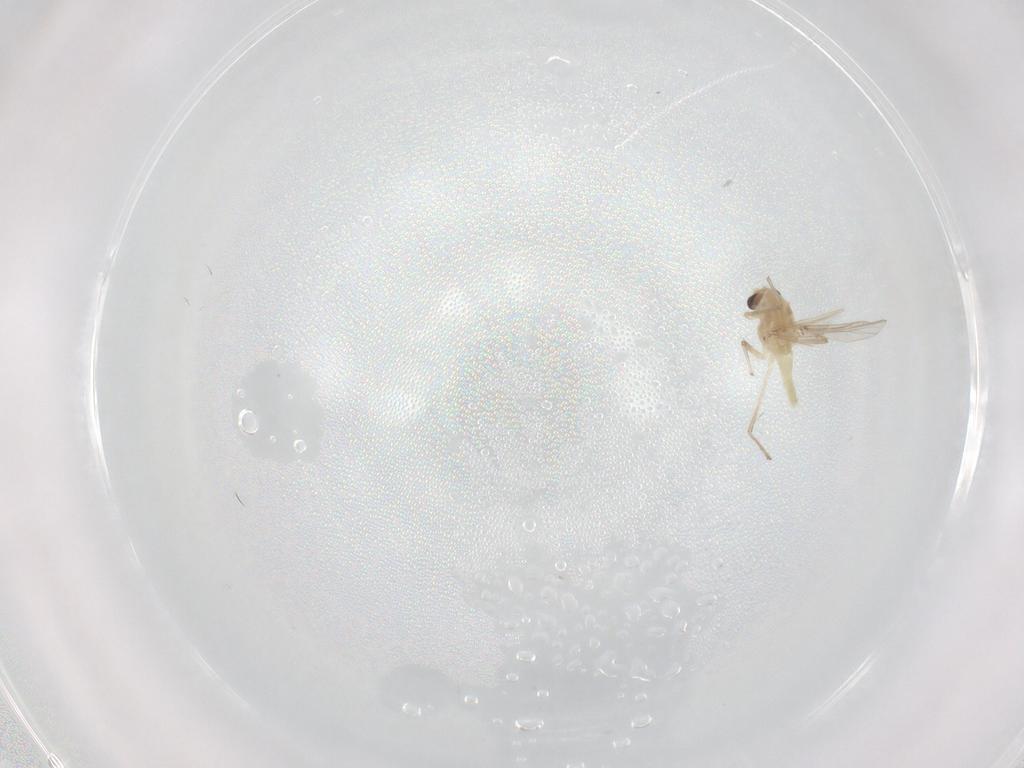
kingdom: Animalia
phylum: Arthropoda
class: Insecta
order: Diptera
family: Chironomidae
